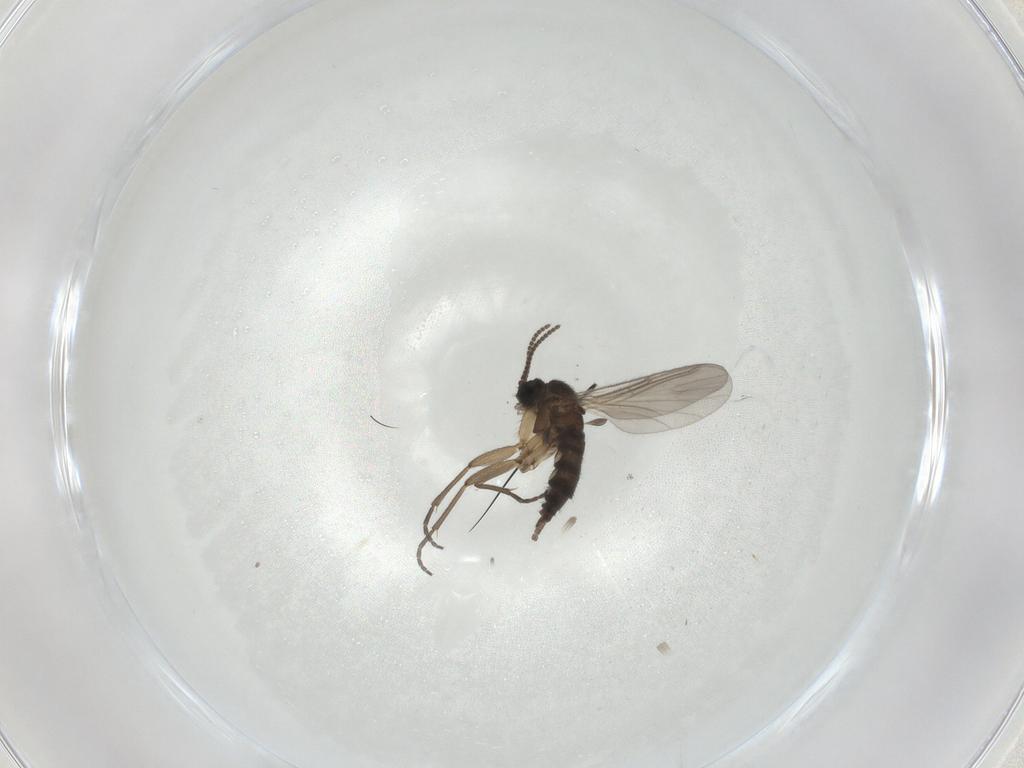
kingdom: Animalia
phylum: Arthropoda
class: Insecta
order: Diptera
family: Sciaridae
